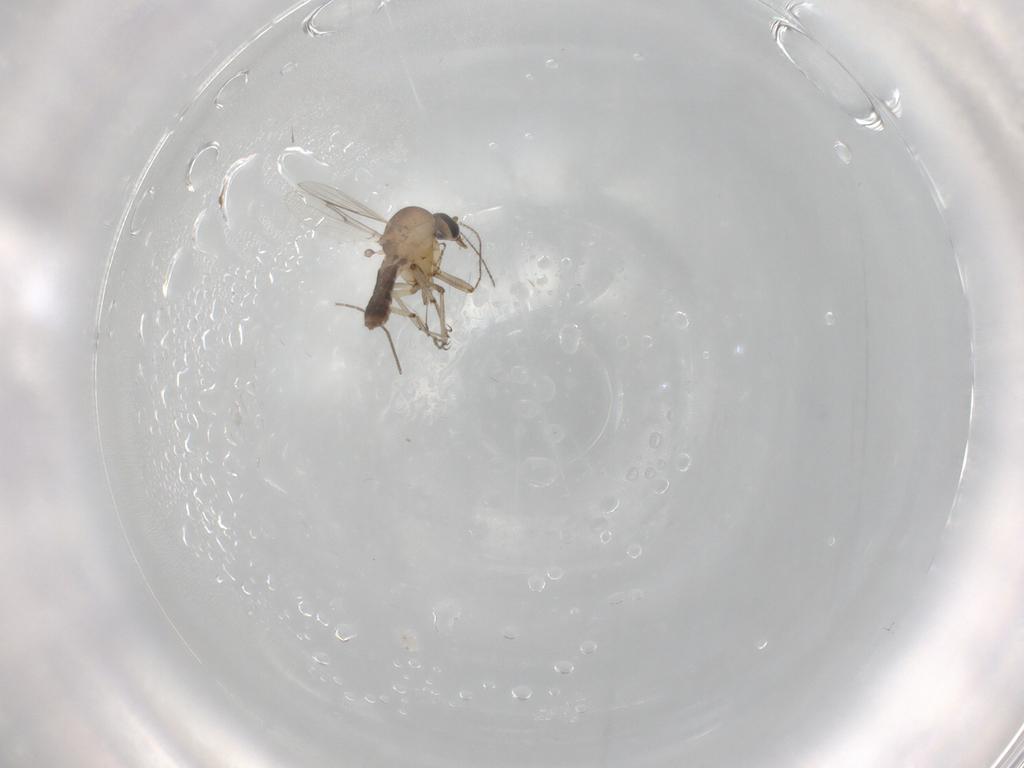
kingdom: Animalia
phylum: Arthropoda
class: Insecta
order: Diptera
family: Ceratopogonidae
